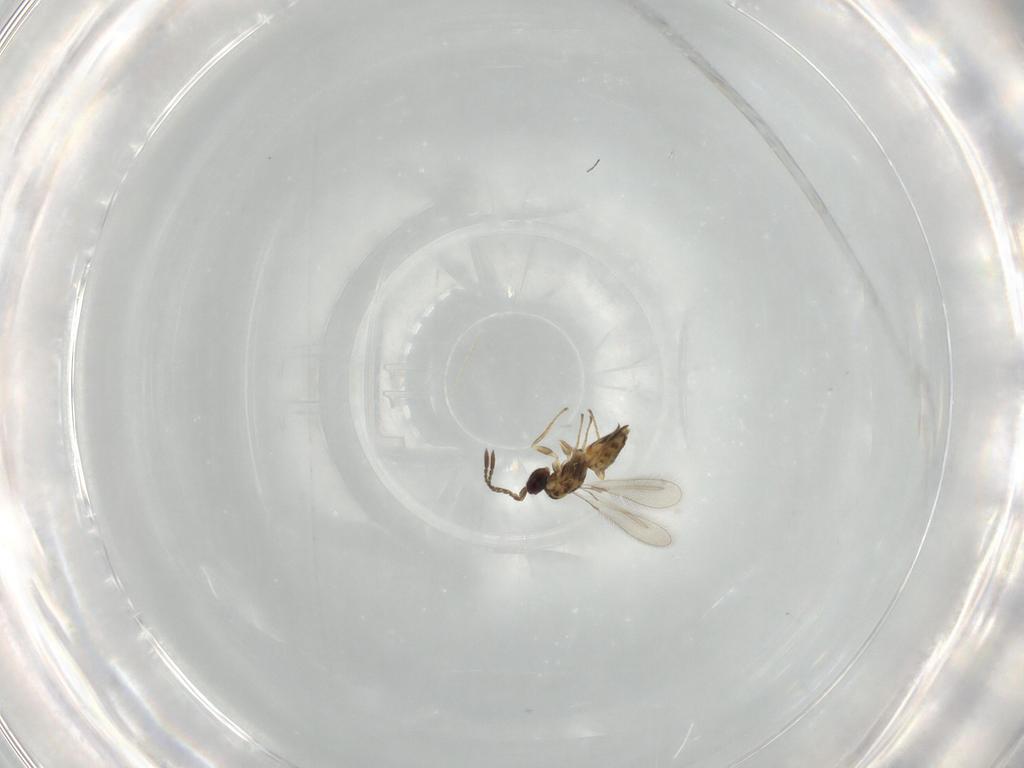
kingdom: Animalia
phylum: Arthropoda
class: Insecta
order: Hymenoptera
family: Mymaridae
